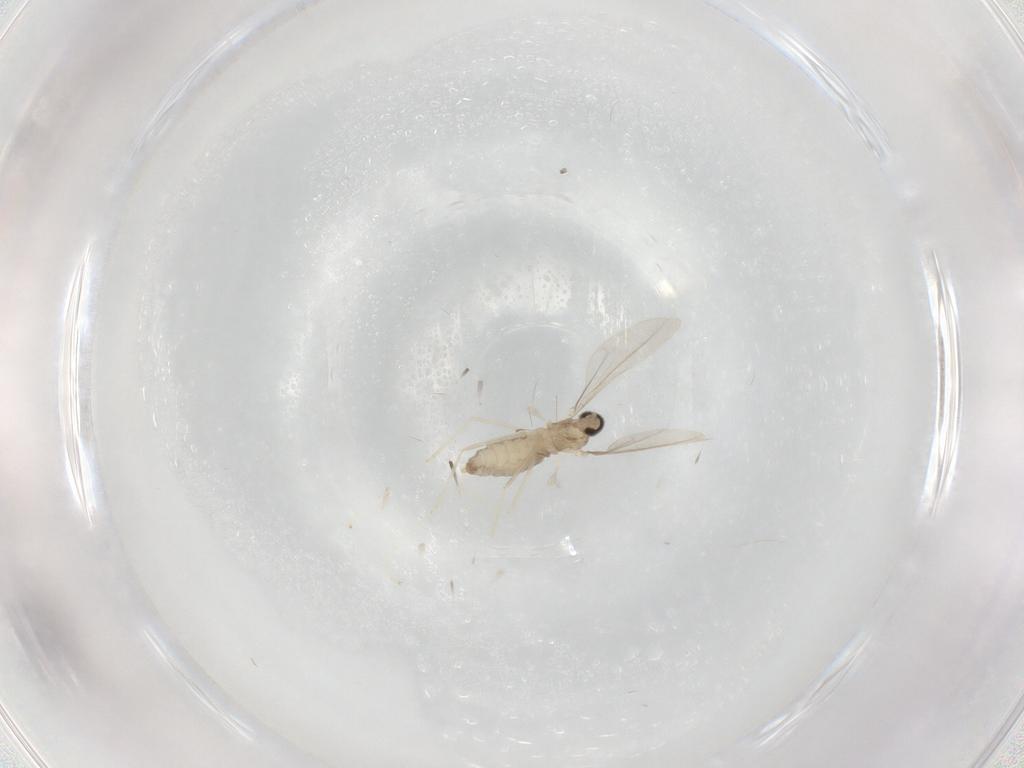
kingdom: Animalia
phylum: Arthropoda
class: Insecta
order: Diptera
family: Cecidomyiidae
